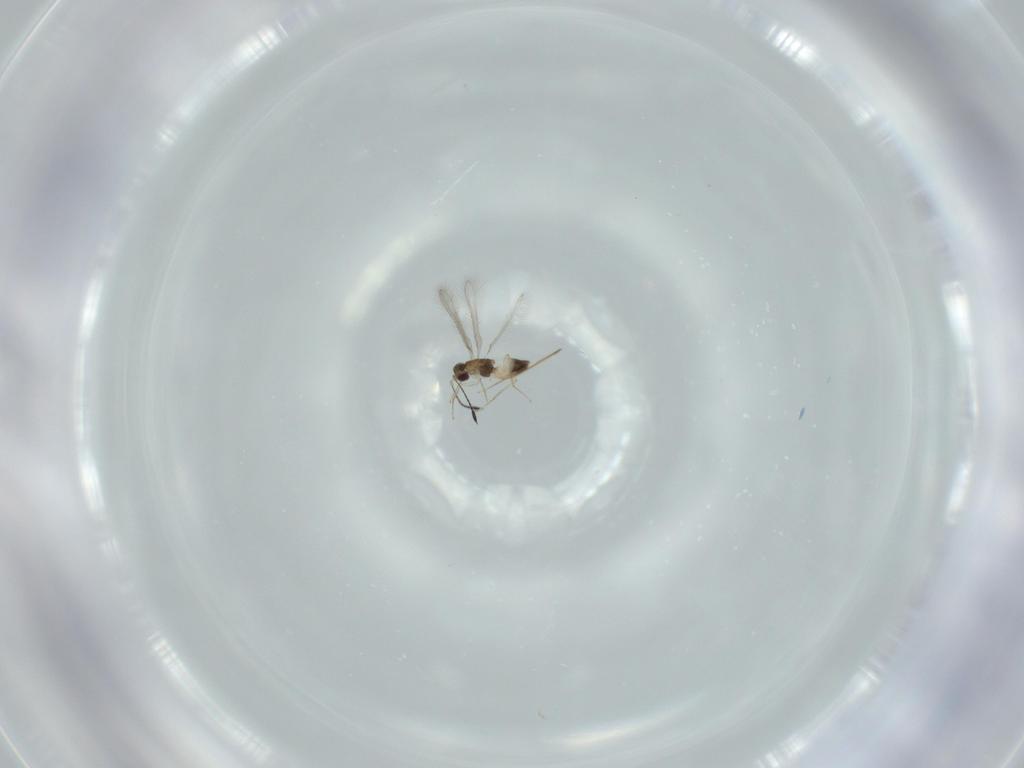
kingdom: Animalia
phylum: Arthropoda
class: Insecta
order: Hymenoptera
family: Mymaridae
